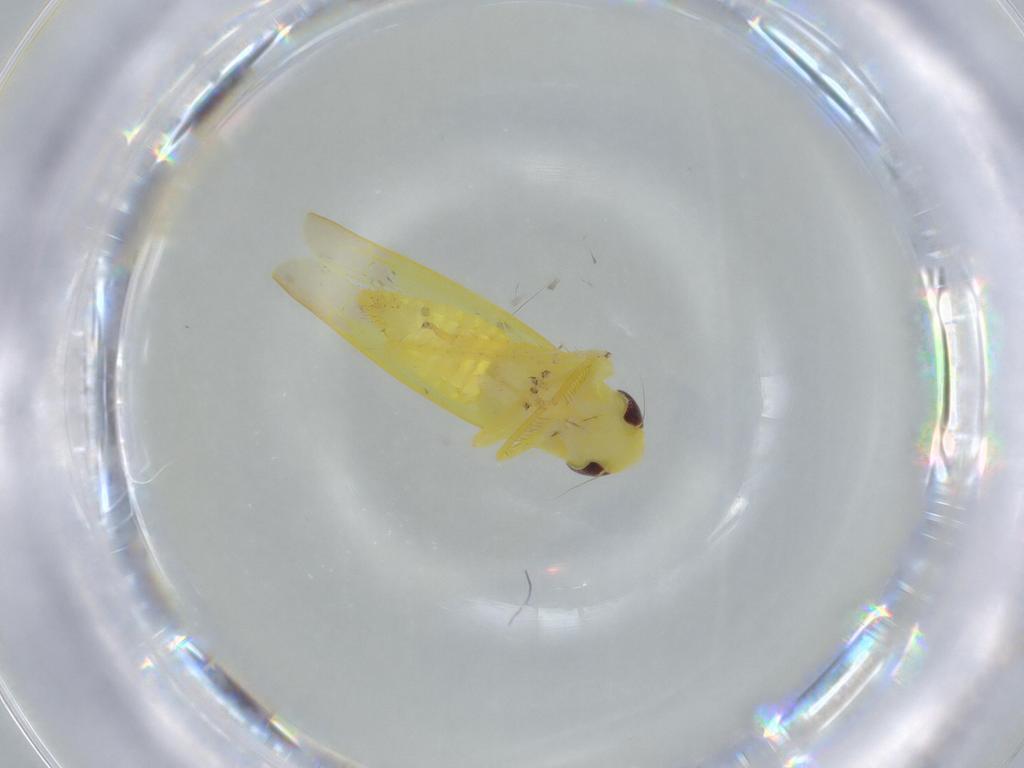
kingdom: Animalia
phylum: Arthropoda
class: Insecta
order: Hemiptera
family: Cicadellidae
